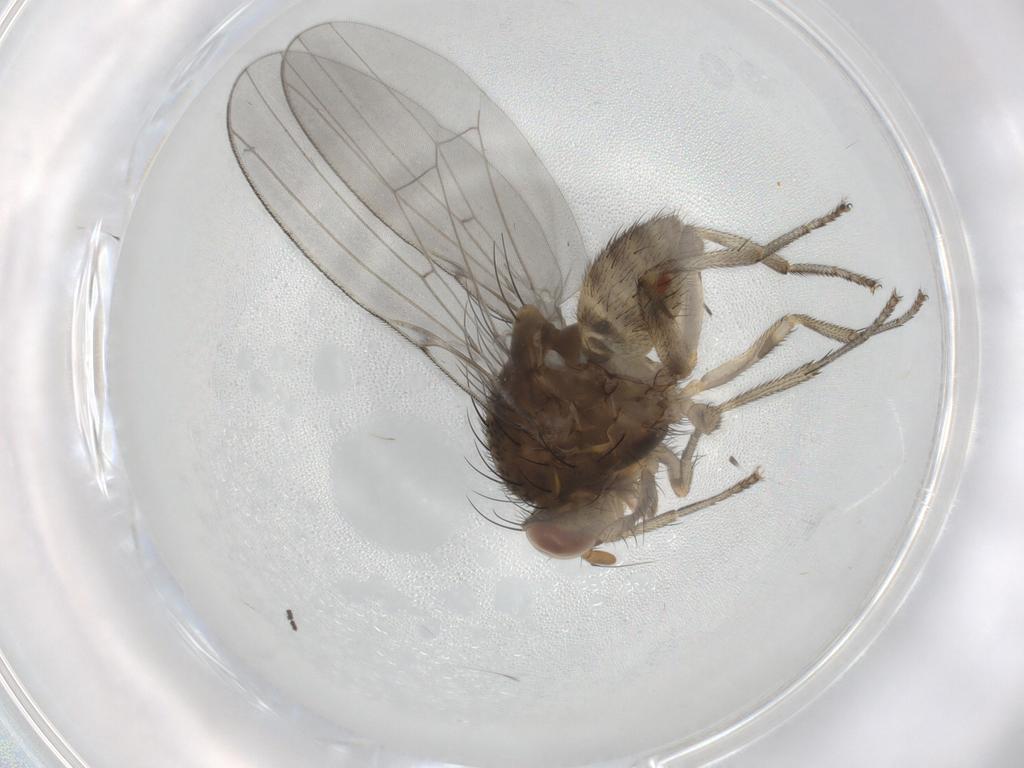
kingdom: Animalia
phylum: Arthropoda
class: Insecta
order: Diptera
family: Lauxaniidae
